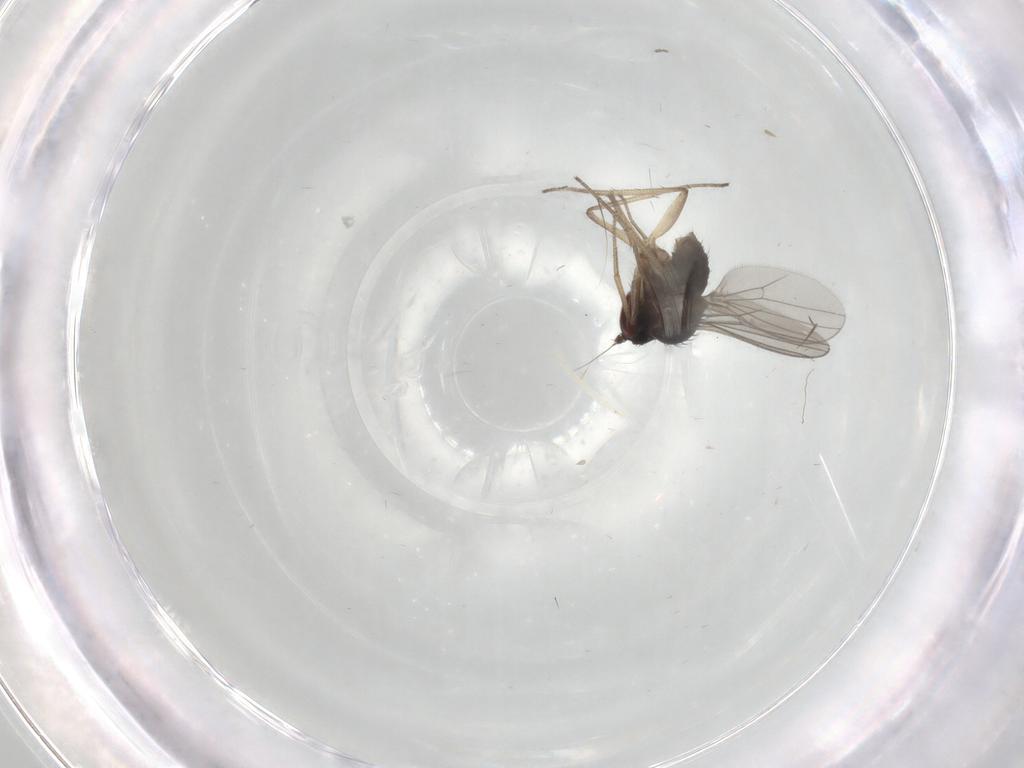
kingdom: Animalia
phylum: Arthropoda
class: Insecta
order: Diptera
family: Dolichopodidae
